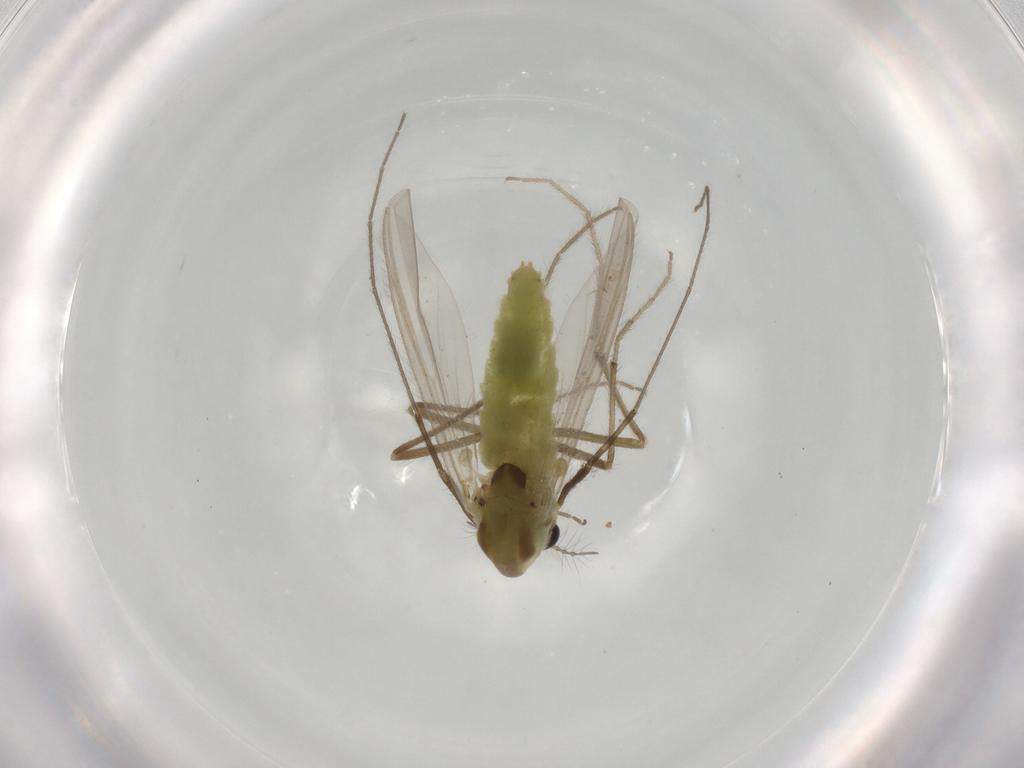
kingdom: Animalia
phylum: Arthropoda
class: Insecta
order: Diptera
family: Chironomidae
